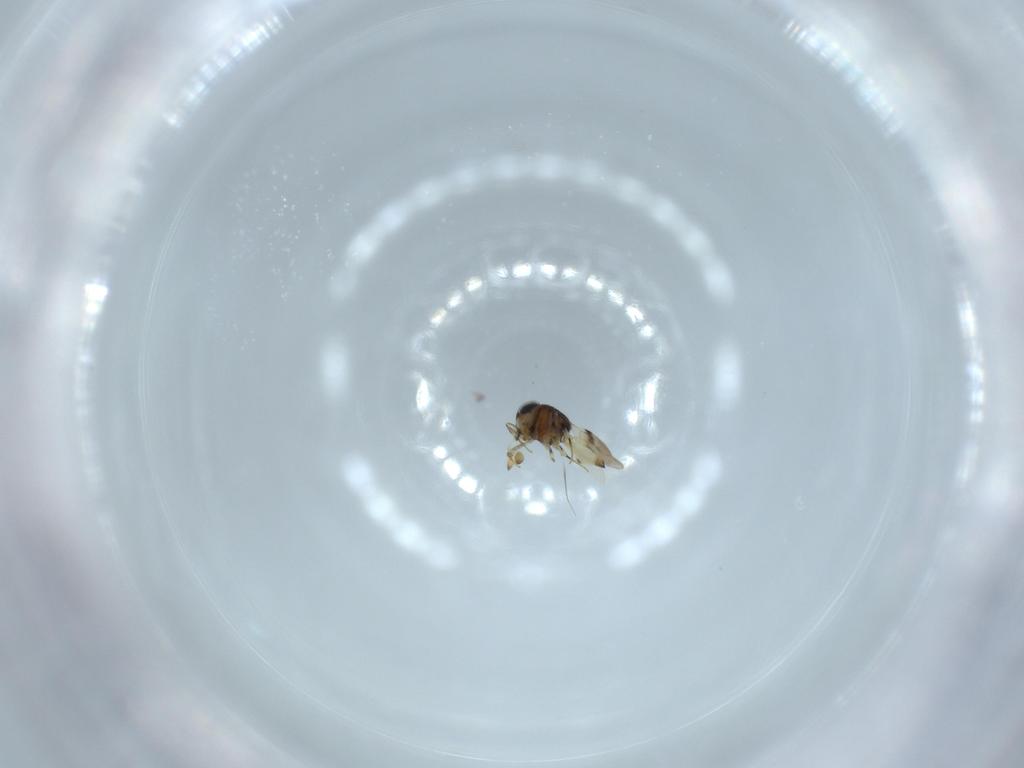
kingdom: Animalia
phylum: Arthropoda
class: Insecta
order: Hymenoptera
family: Scelionidae
